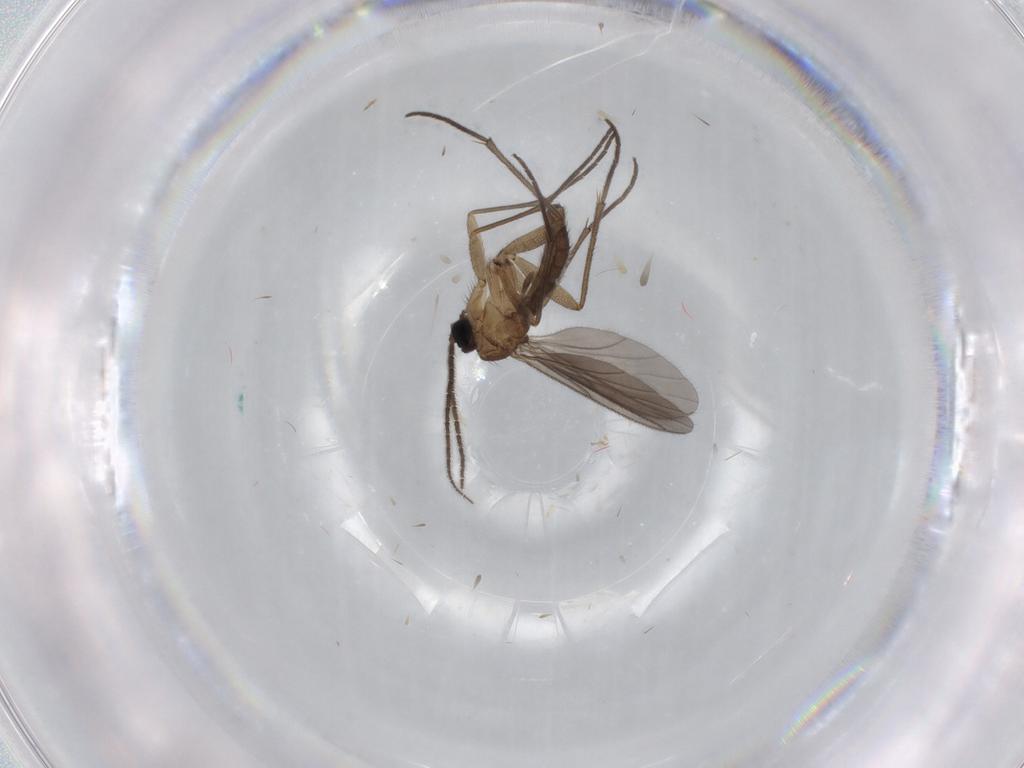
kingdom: Animalia
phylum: Arthropoda
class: Insecta
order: Diptera
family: Sciaridae
